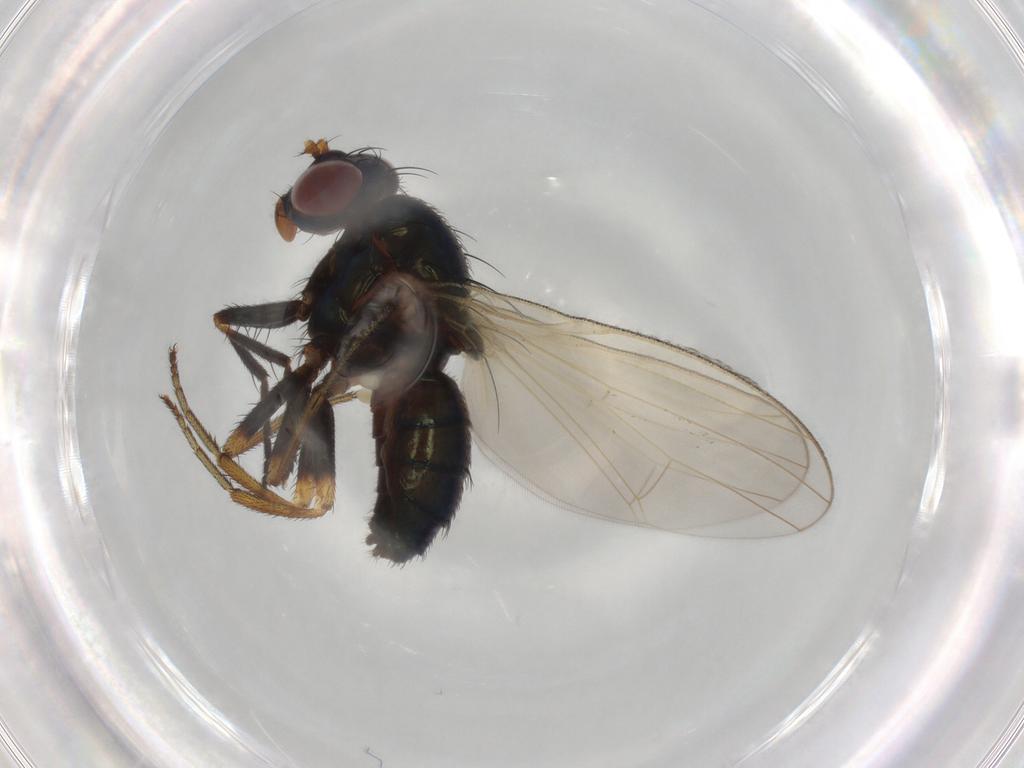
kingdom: Animalia
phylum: Arthropoda
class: Insecta
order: Diptera
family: Lauxaniidae
